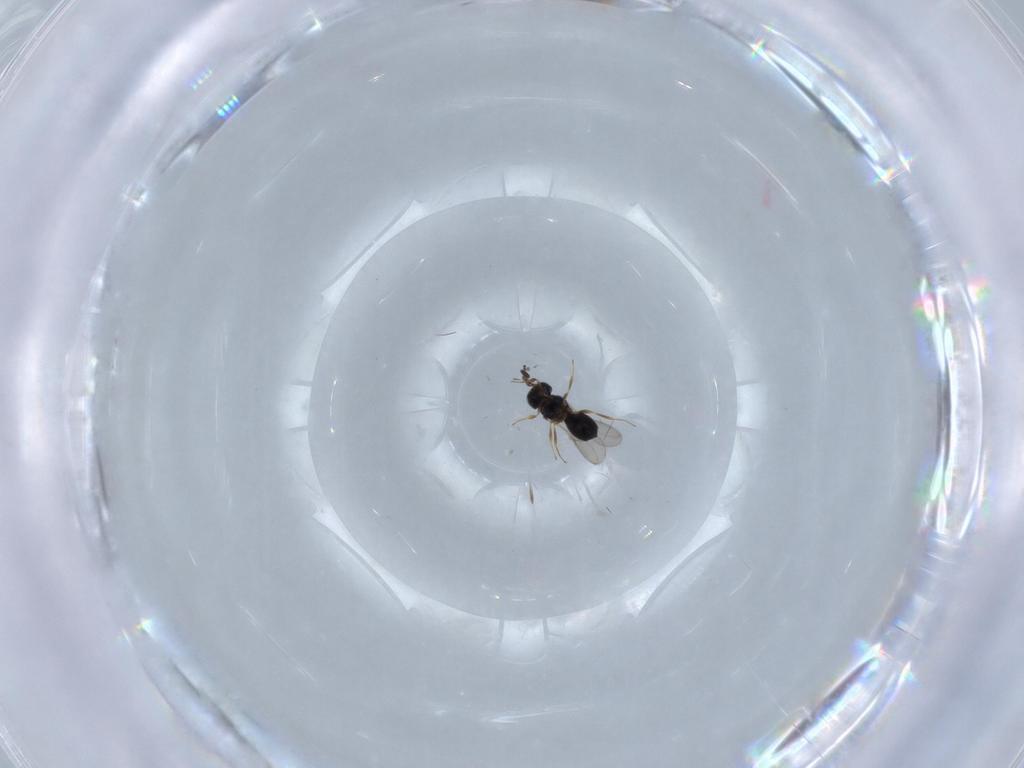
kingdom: Animalia
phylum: Arthropoda
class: Insecta
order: Hymenoptera
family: Scelionidae
